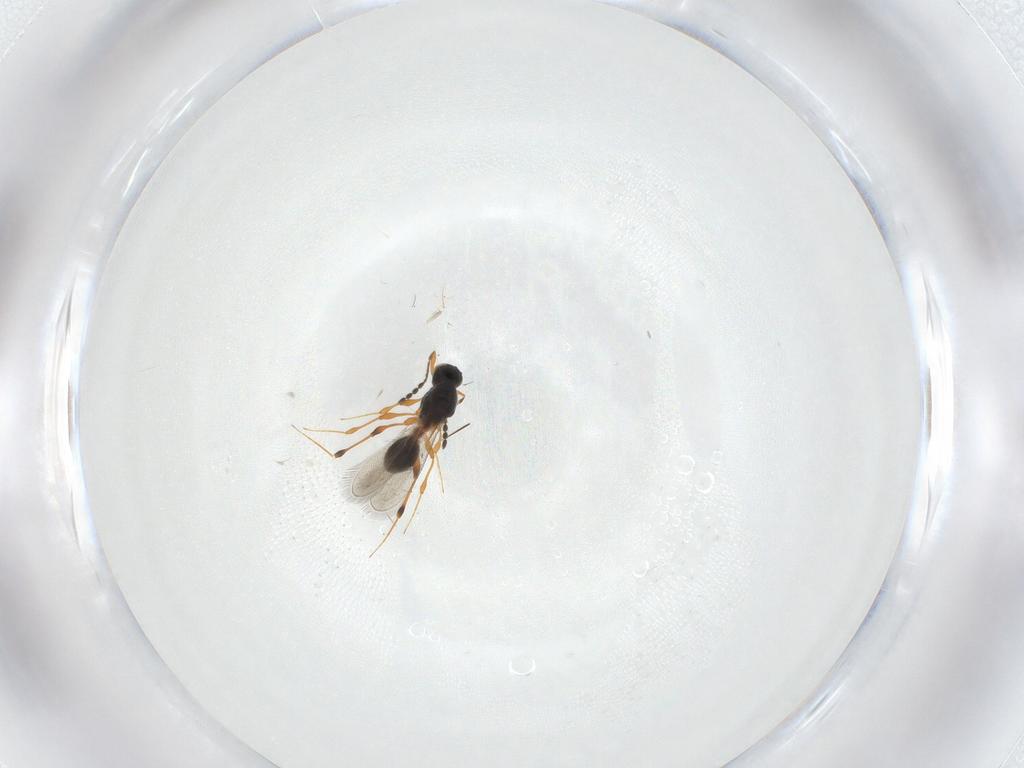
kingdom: Animalia
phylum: Arthropoda
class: Insecta
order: Hymenoptera
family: Platygastridae
